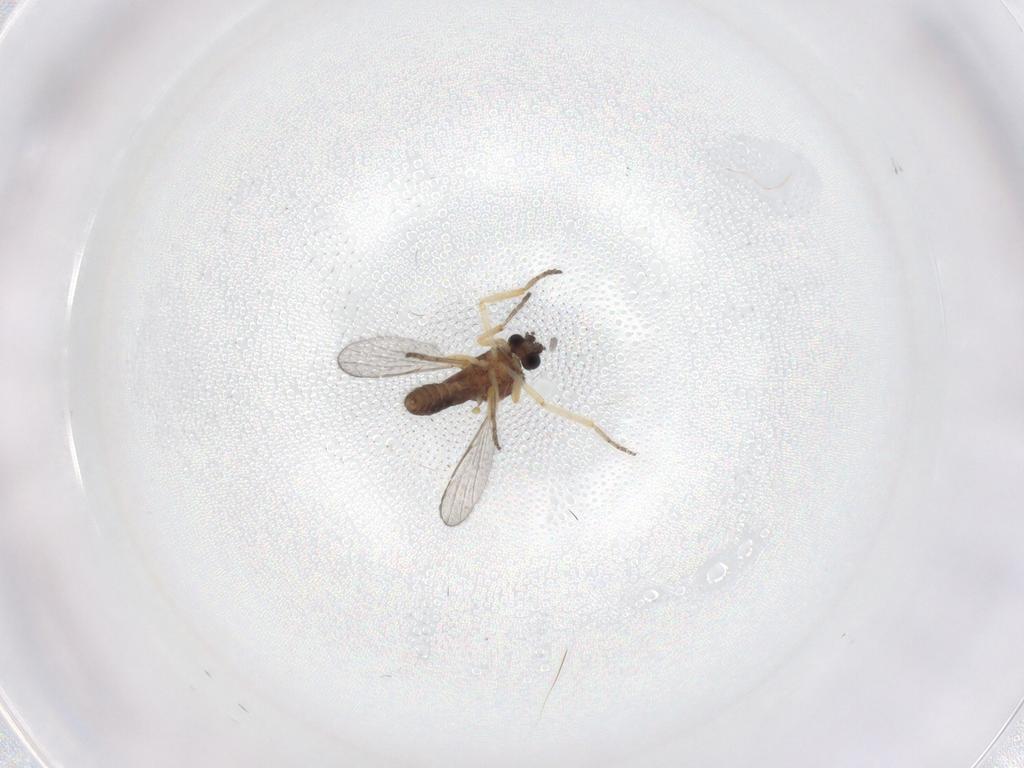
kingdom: Animalia
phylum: Arthropoda
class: Insecta
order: Diptera
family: Ceratopogonidae
